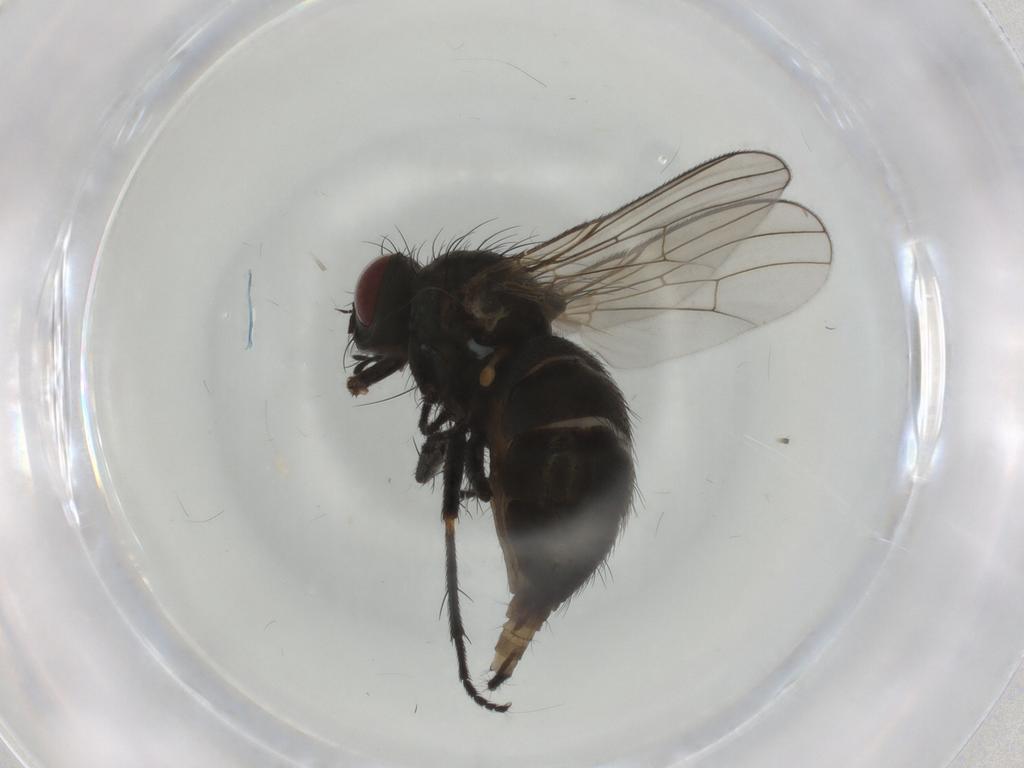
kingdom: Animalia
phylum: Arthropoda
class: Insecta
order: Diptera
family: Muscidae
